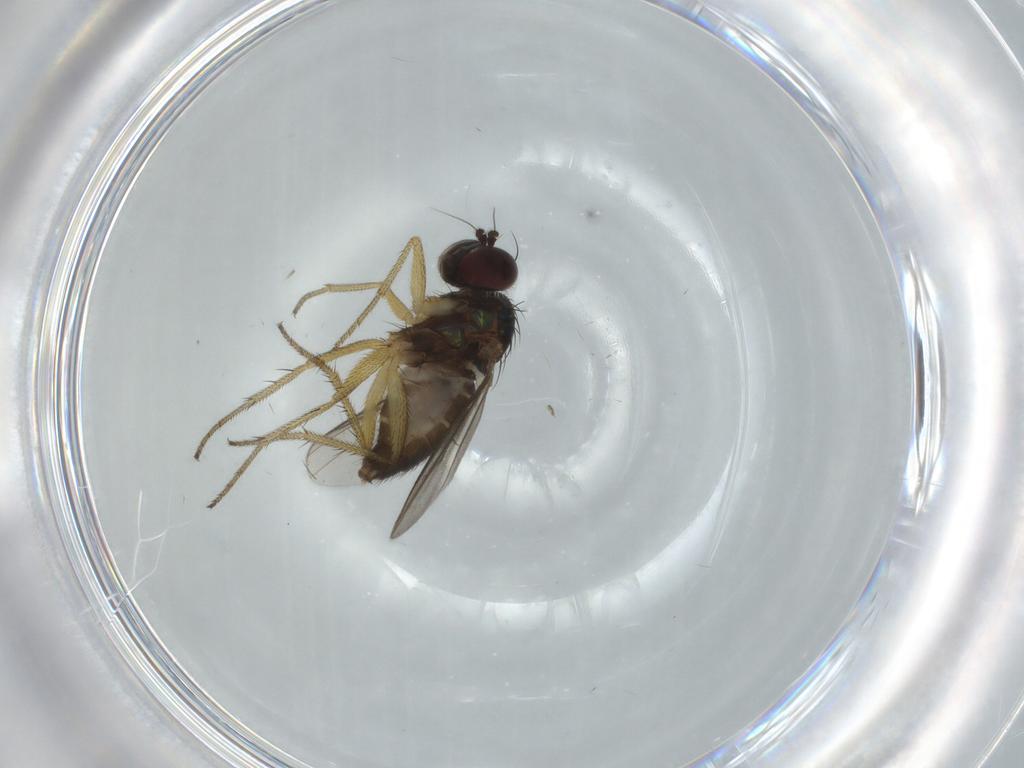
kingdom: Animalia
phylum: Arthropoda
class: Insecta
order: Diptera
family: Dolichopodidae
